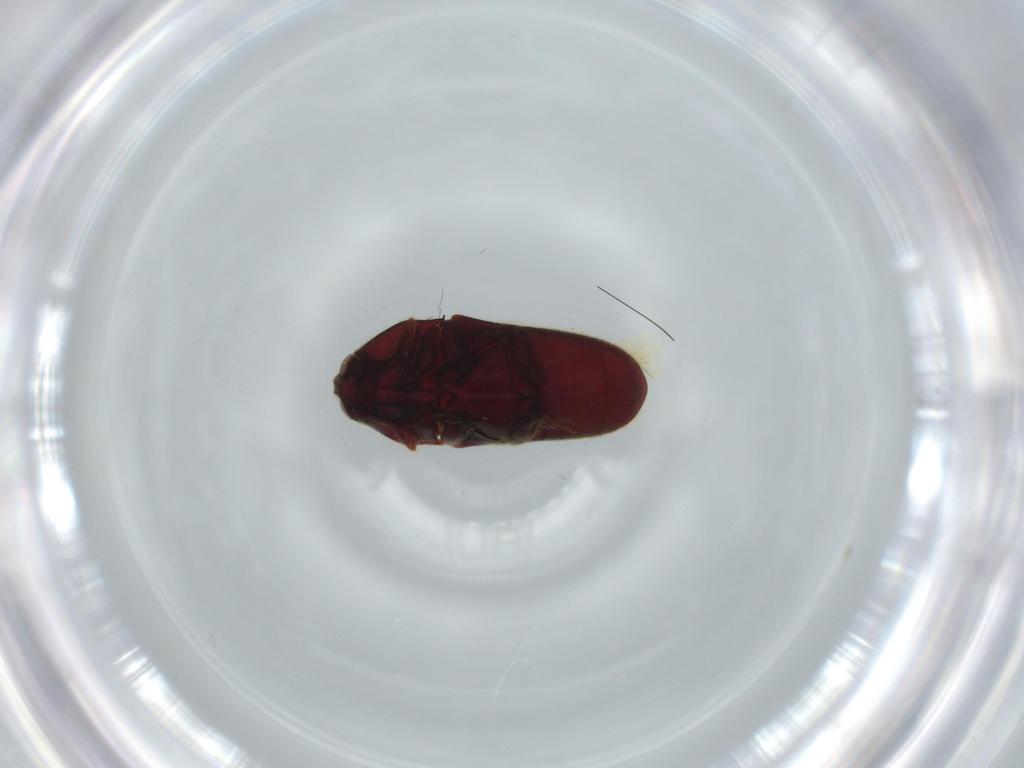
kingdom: Animalia
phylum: Arthropoda
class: Insecta
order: Coleoptera
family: Throscidae
